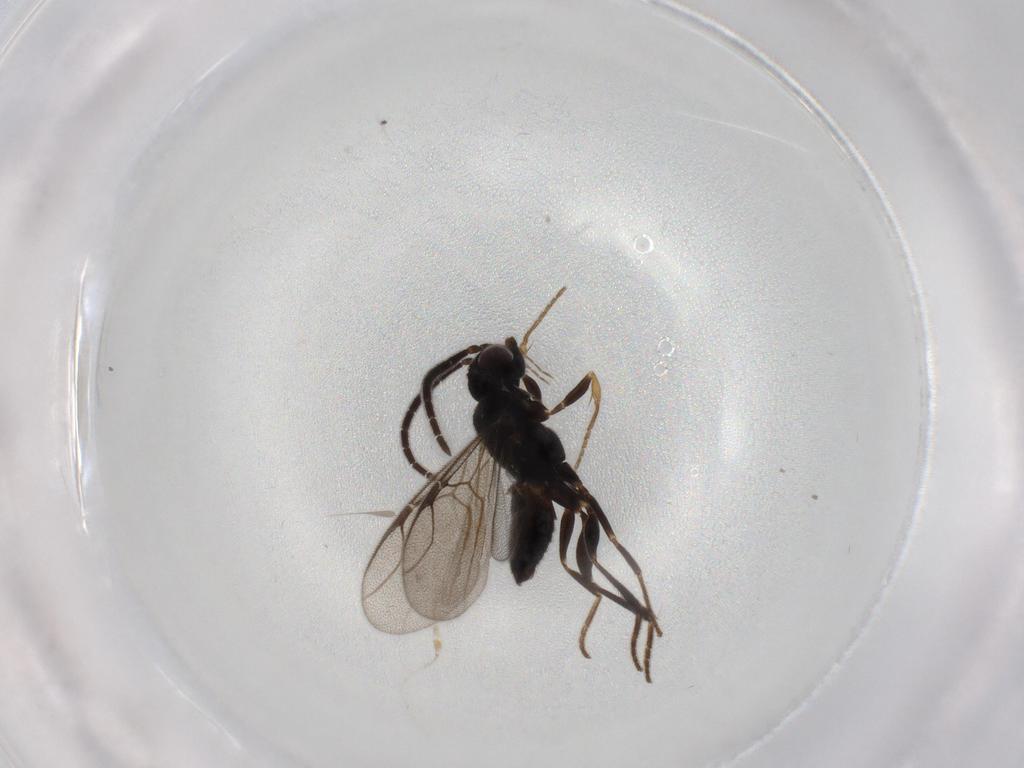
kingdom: Animalia
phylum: Arthropoda
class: Insecta
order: Hymenoptera
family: Dryinidae
